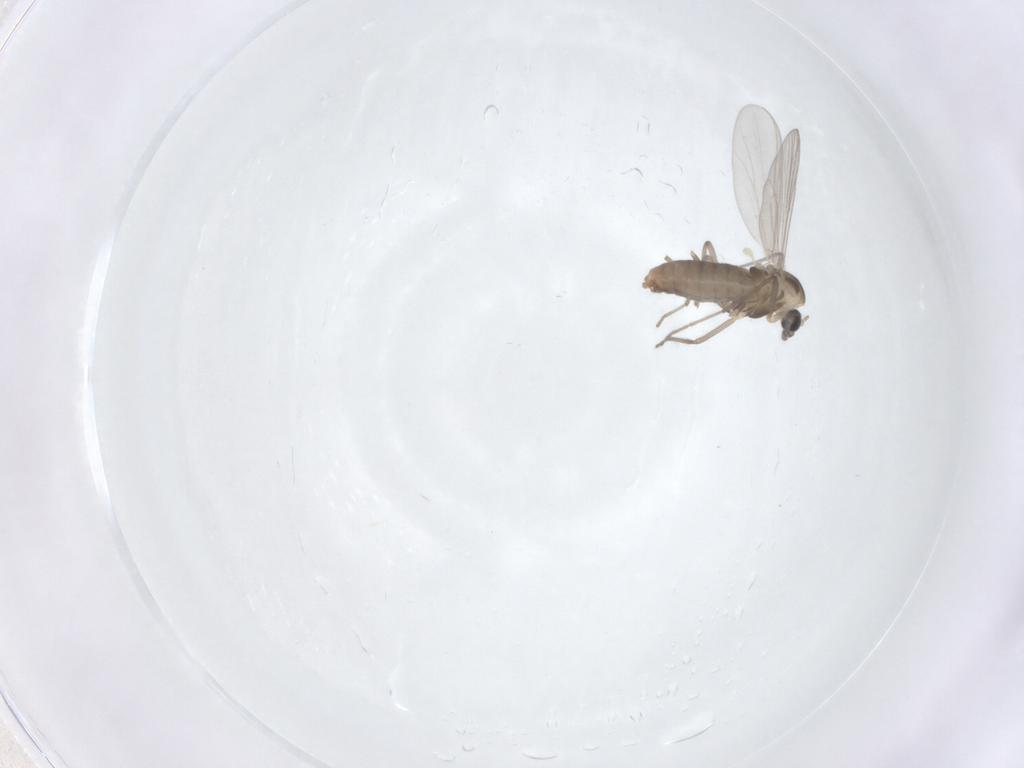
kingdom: Animalia
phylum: Arthropoda
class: Insecta
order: Diptera
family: Chironomidae
